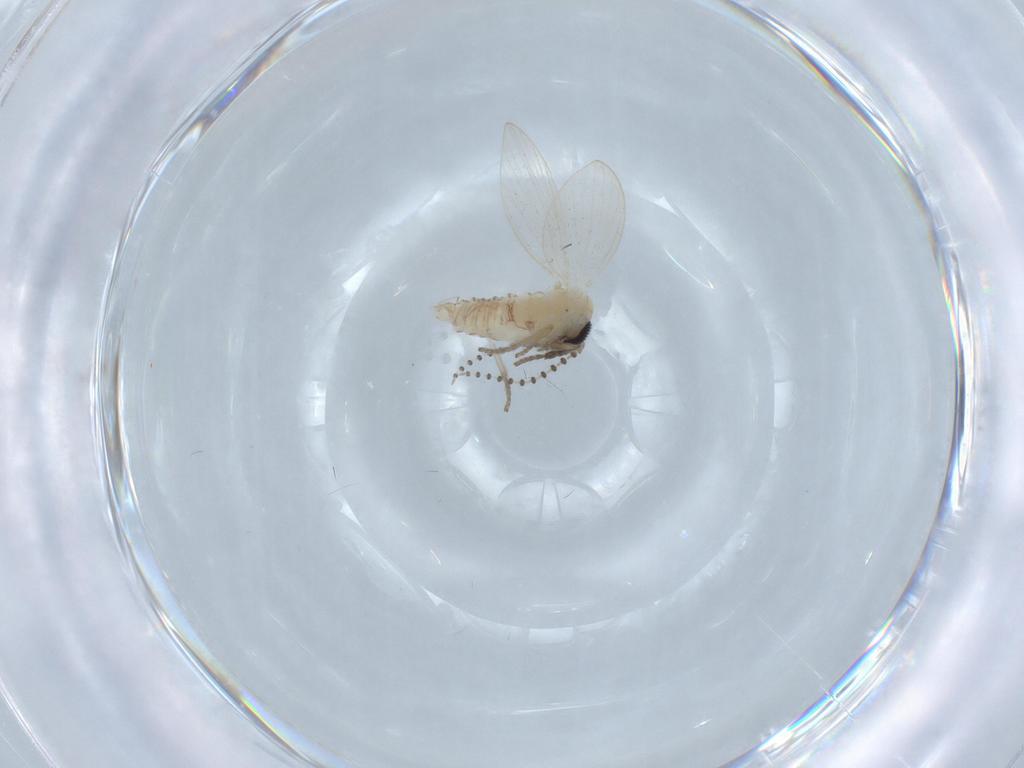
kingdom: Animalia
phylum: Arthropoda
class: Insecta
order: Diptera
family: Psychodidae
